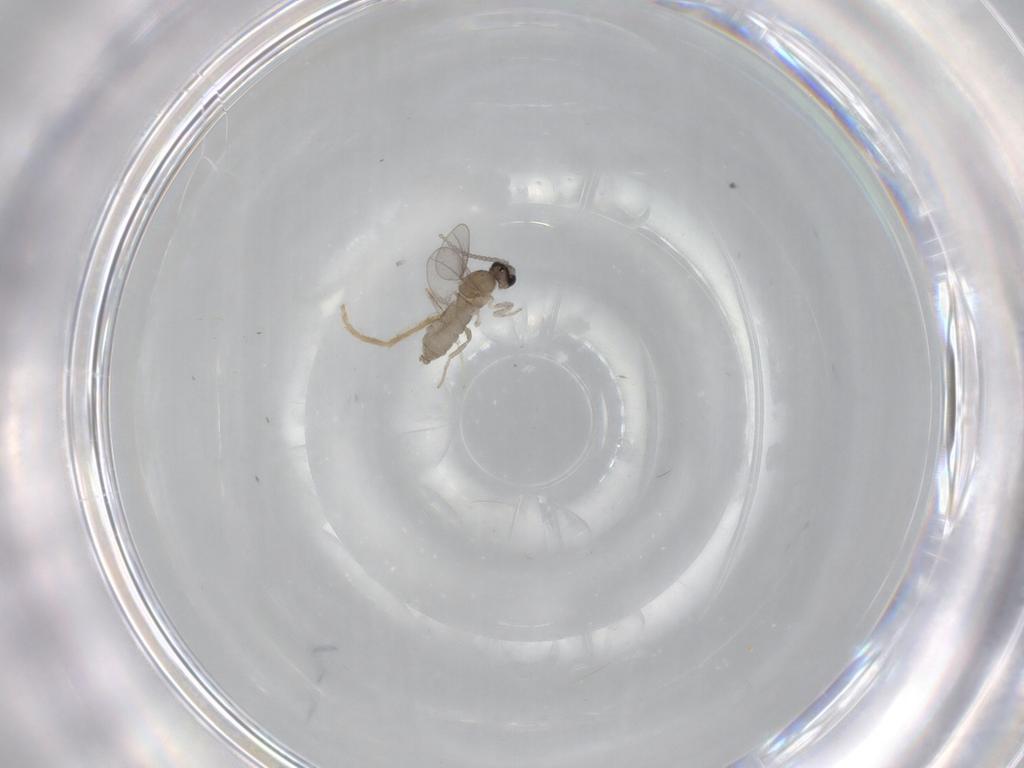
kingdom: Animalia
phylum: Arthropoda
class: Insecta
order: Diptera
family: Cecidomyiidae
